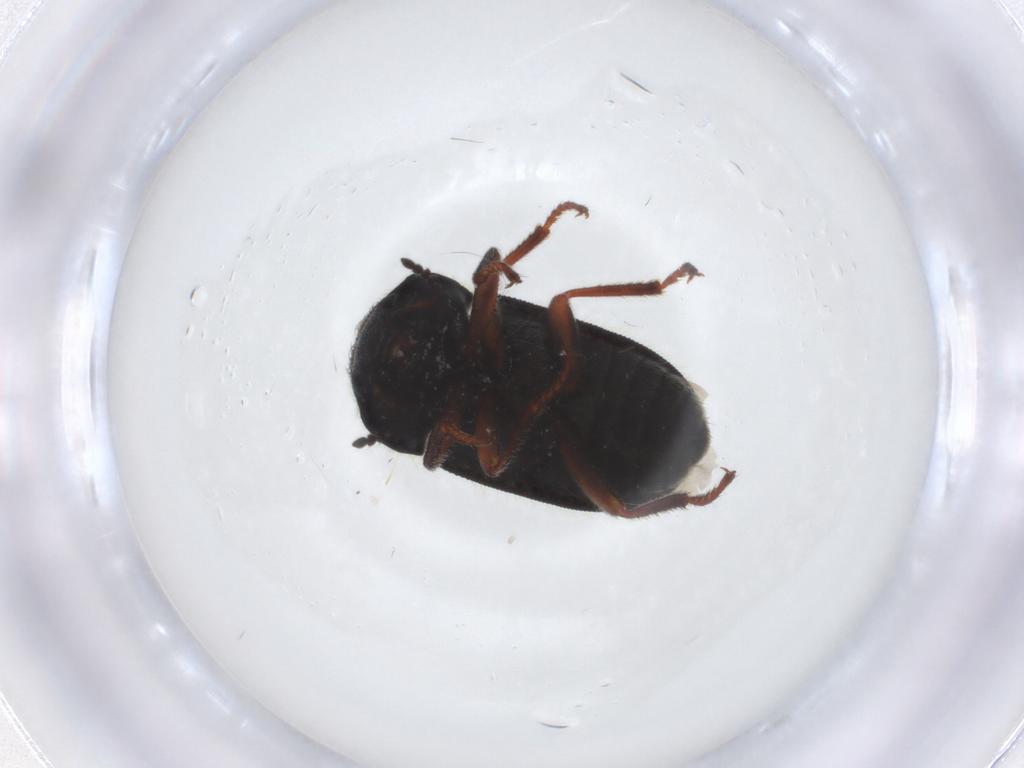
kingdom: Animalia
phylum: Arthropoda
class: Insecta
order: Coleoptera
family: Melyridae
